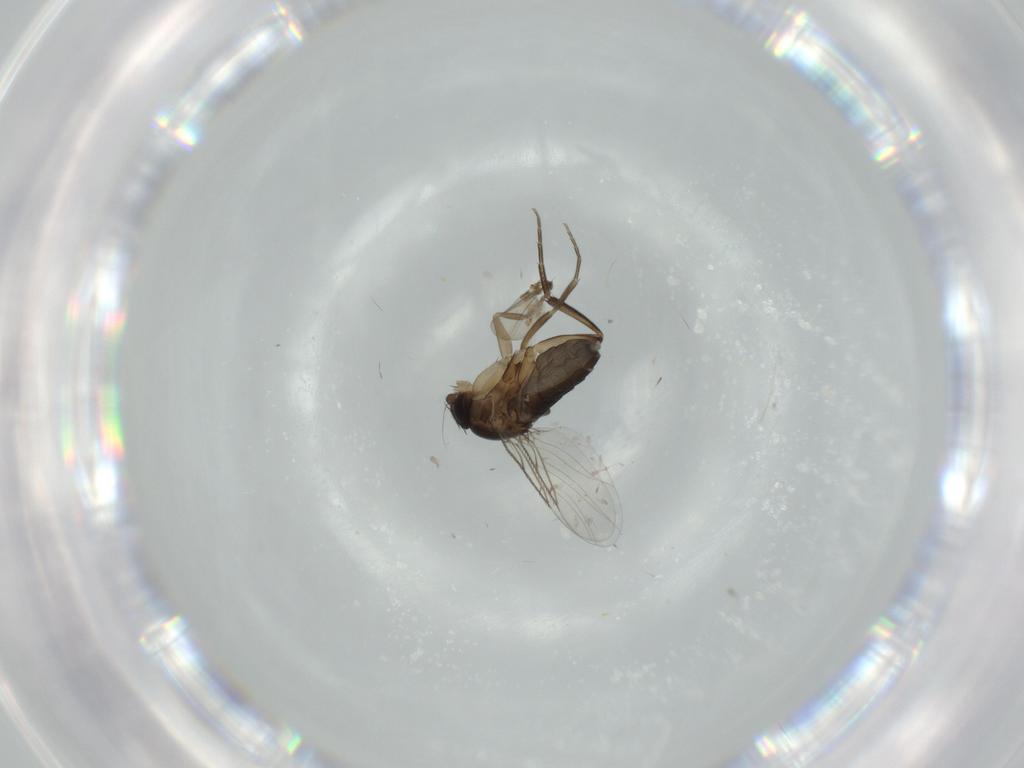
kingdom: Animalia
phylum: Arthropoda
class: Insecta
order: Diptera
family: Phoridae
